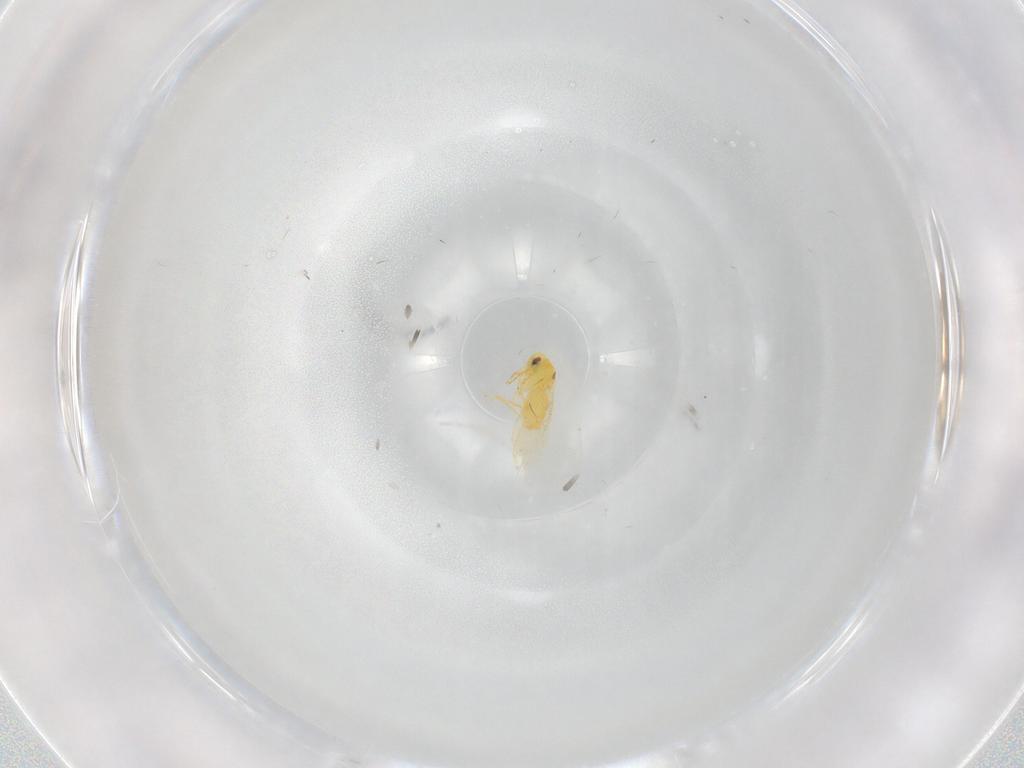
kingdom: Animalia
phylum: Arthropoda
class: Insecta
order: Hemiptera
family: Aleyrodidae
